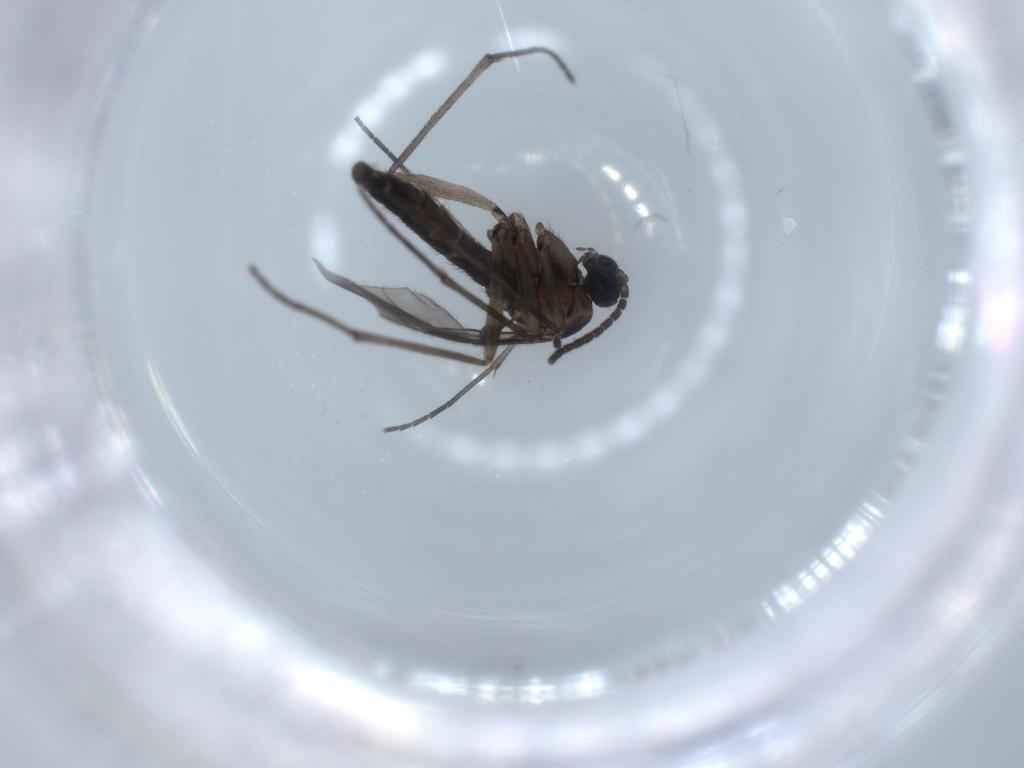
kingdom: Animalia
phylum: Arthropoda
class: Insecta
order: Diptera
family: Sciaridae
